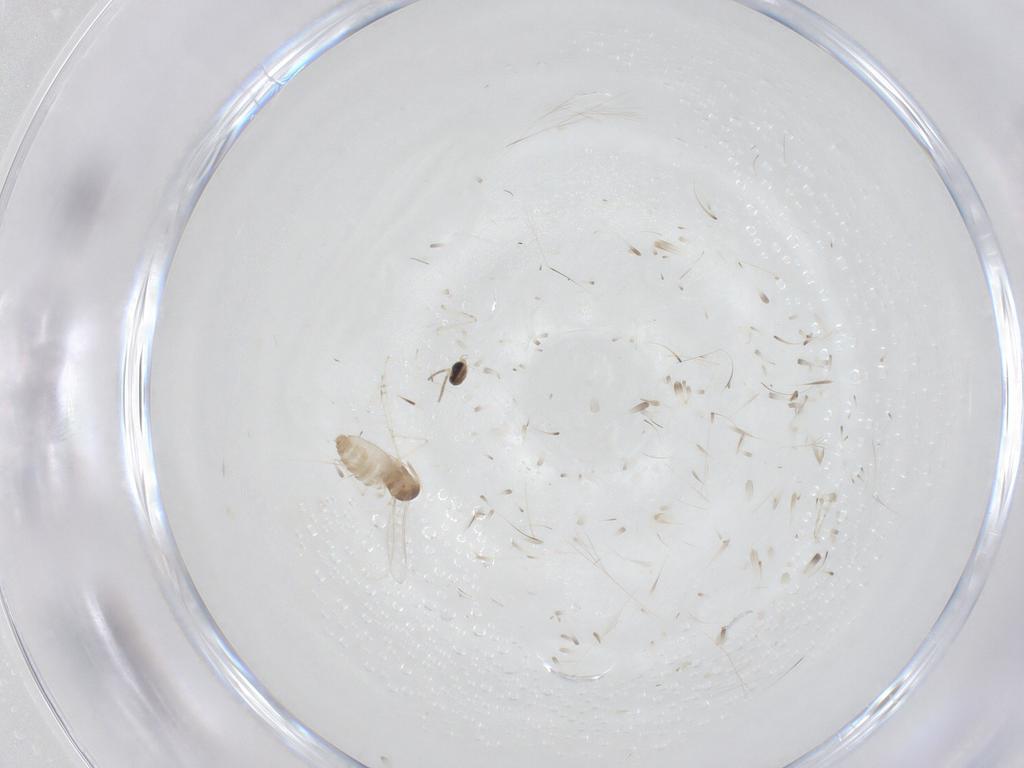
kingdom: Animalia
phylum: Arthropoda
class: Insecta
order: Diptera
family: Cecidomyiidae
